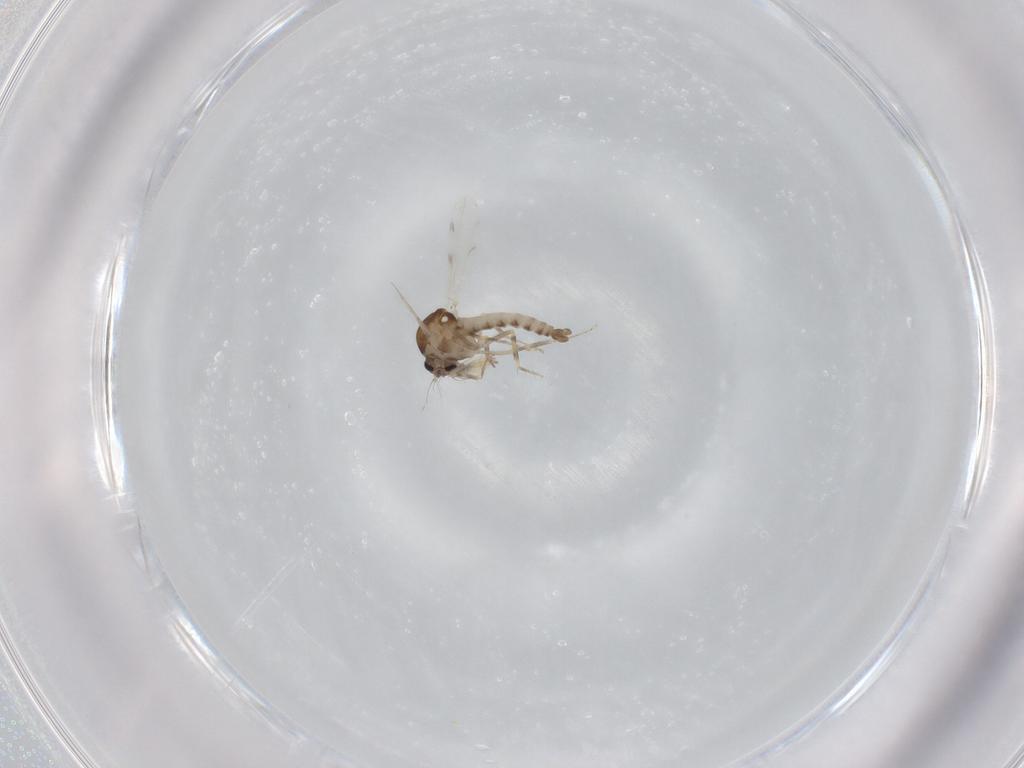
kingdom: Animalia
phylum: Arthropoda
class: Insecta
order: Diptera
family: Ceratopogonidae
